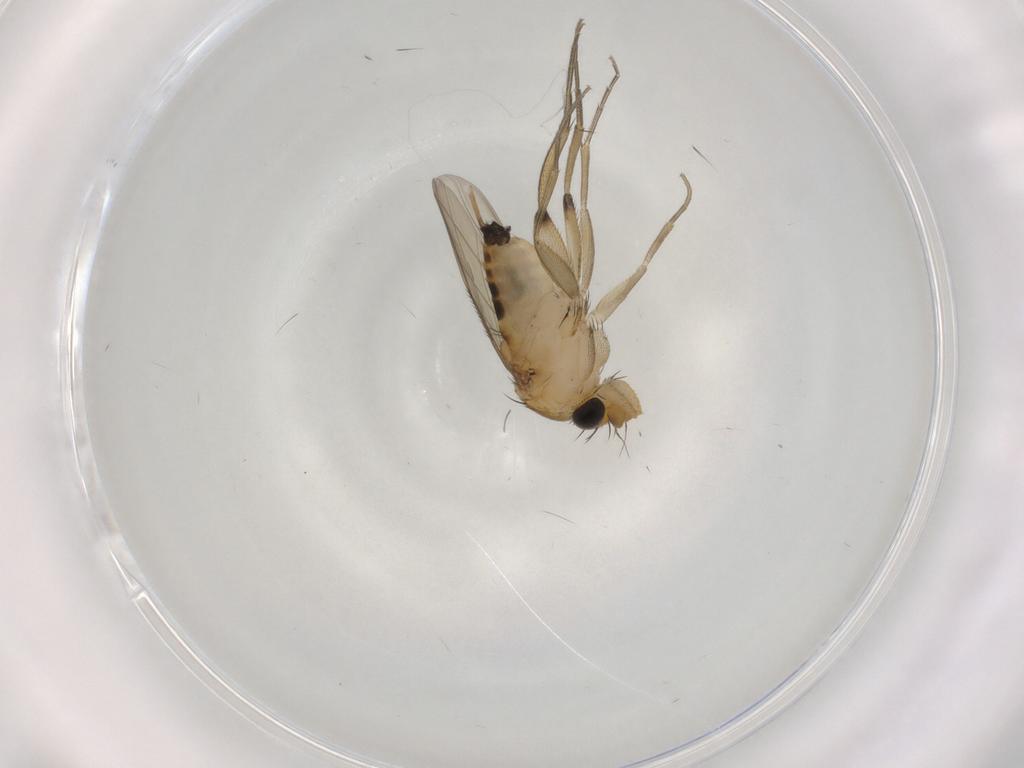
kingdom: Animalia
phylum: Arthropoda
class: Insecta
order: Diptera
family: Phoridae
